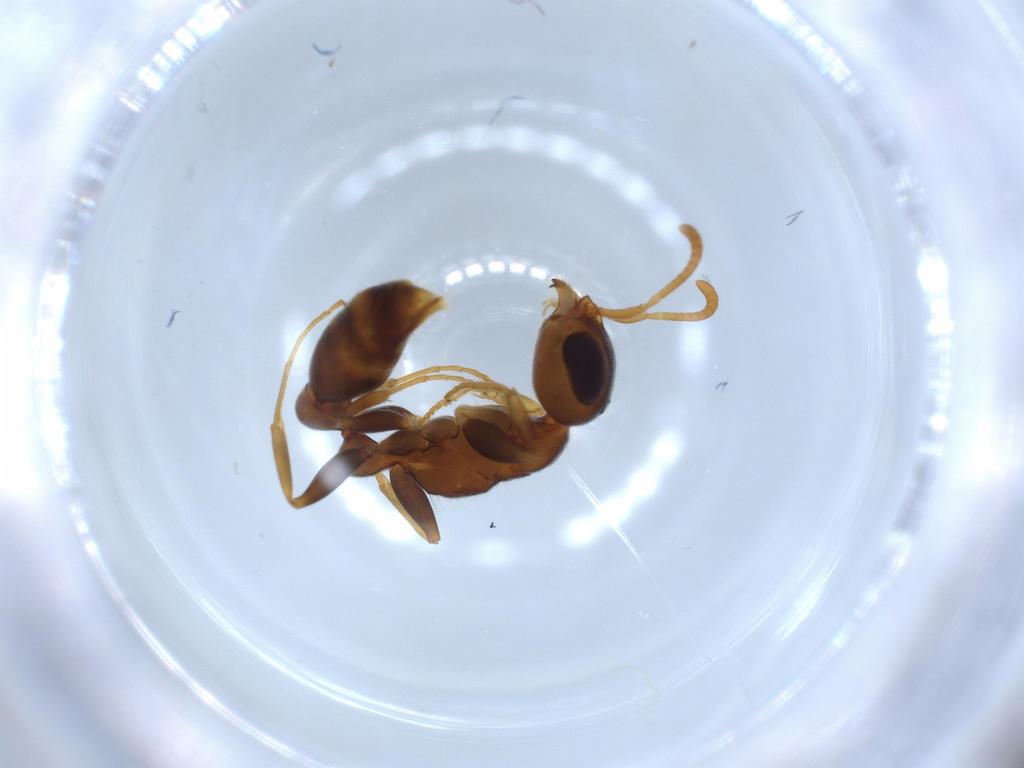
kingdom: Animalia
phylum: Arthropoda
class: Insecta
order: Hymenoptera
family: Formicidae
